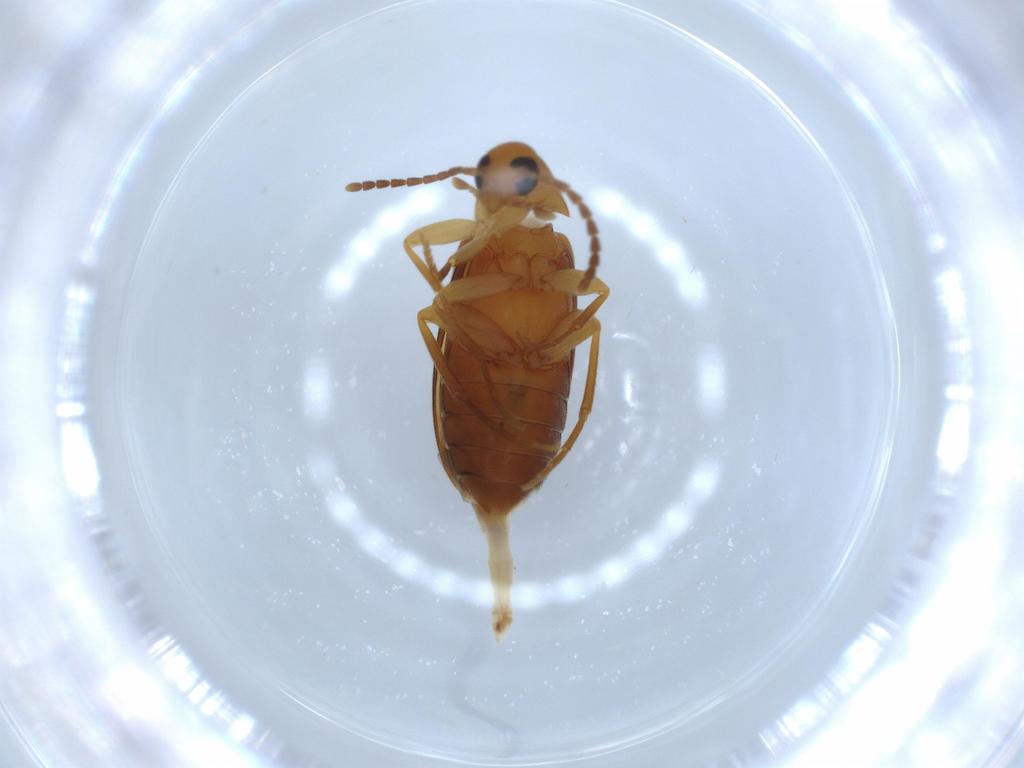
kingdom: Animalia
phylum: Arthropoda
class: Insecta
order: Coleoptera
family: Scraptiidae
